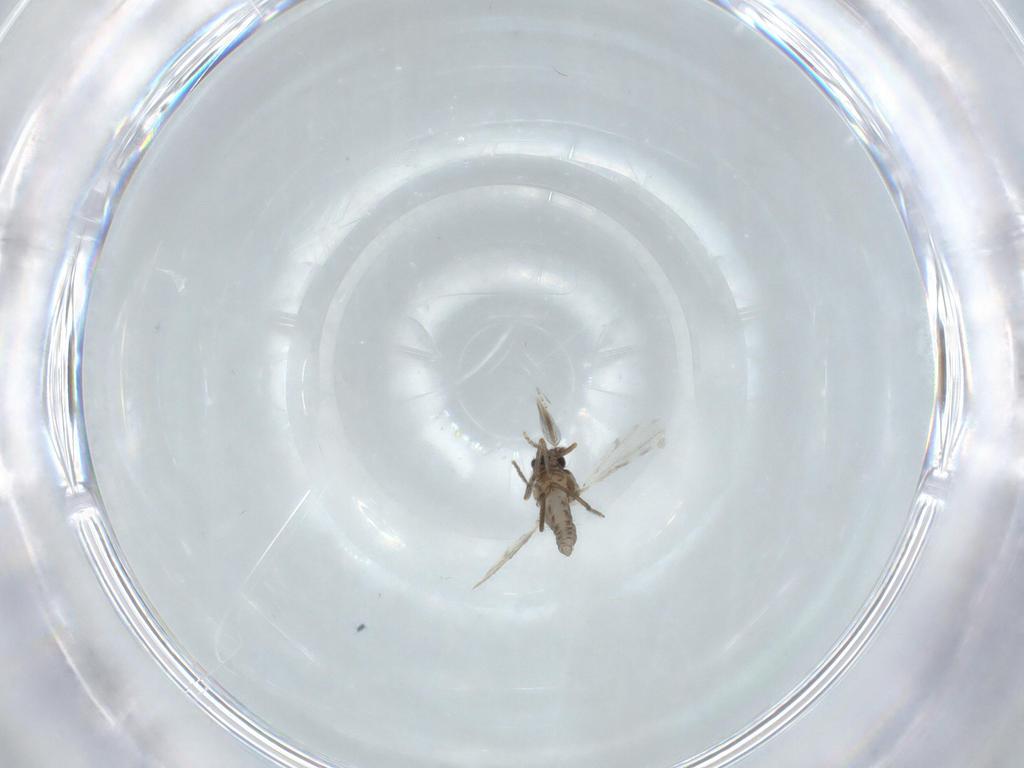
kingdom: Animalia
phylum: Arthropoda
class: Insecta
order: Diptera
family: Ceratopogonidae
